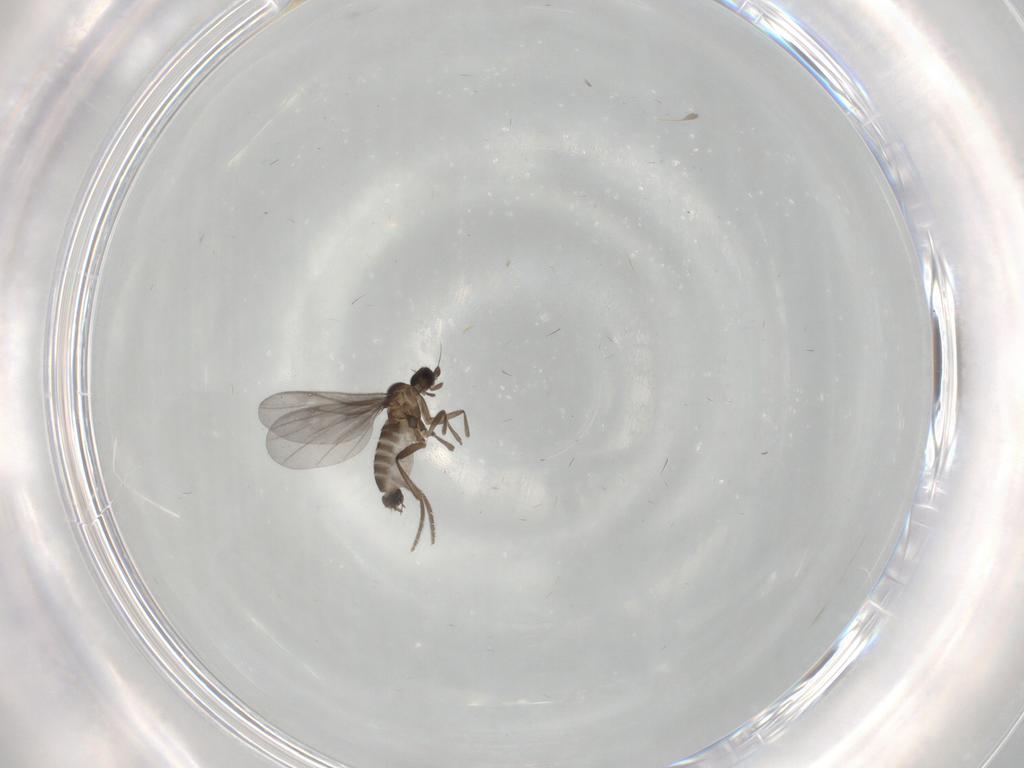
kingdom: Animalia
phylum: Arthropoda
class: Insecta
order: Diptera
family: Phoridae
